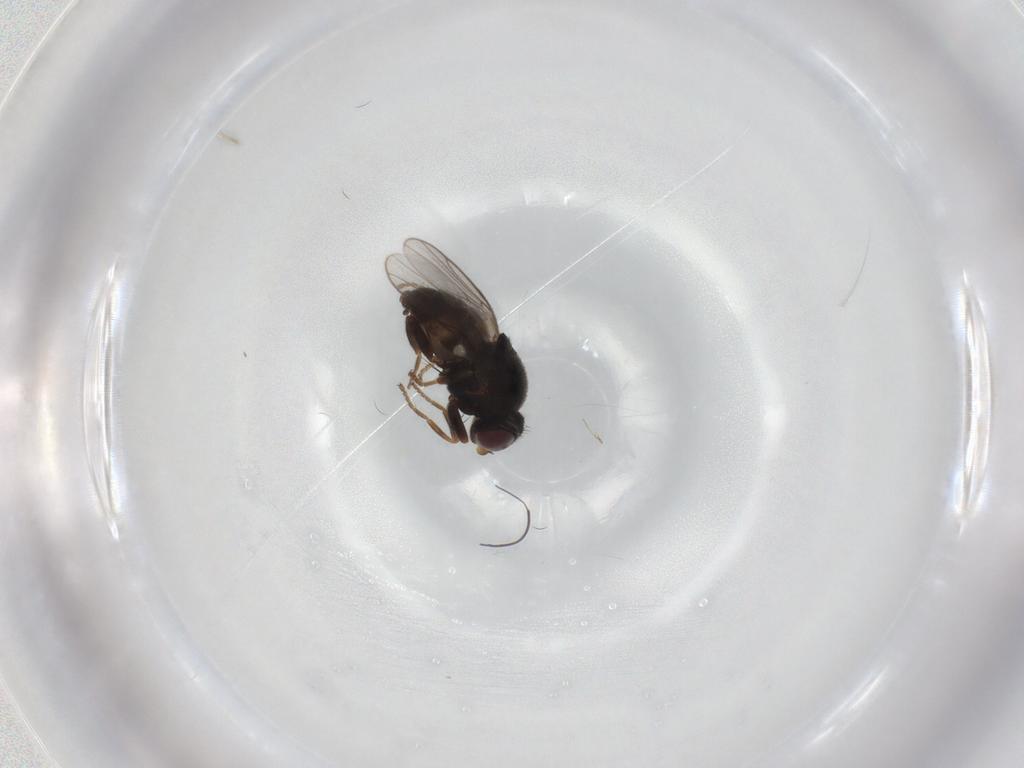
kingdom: Animalia
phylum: Arthropoda
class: Insecta
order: Diptera
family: Chloropidae
